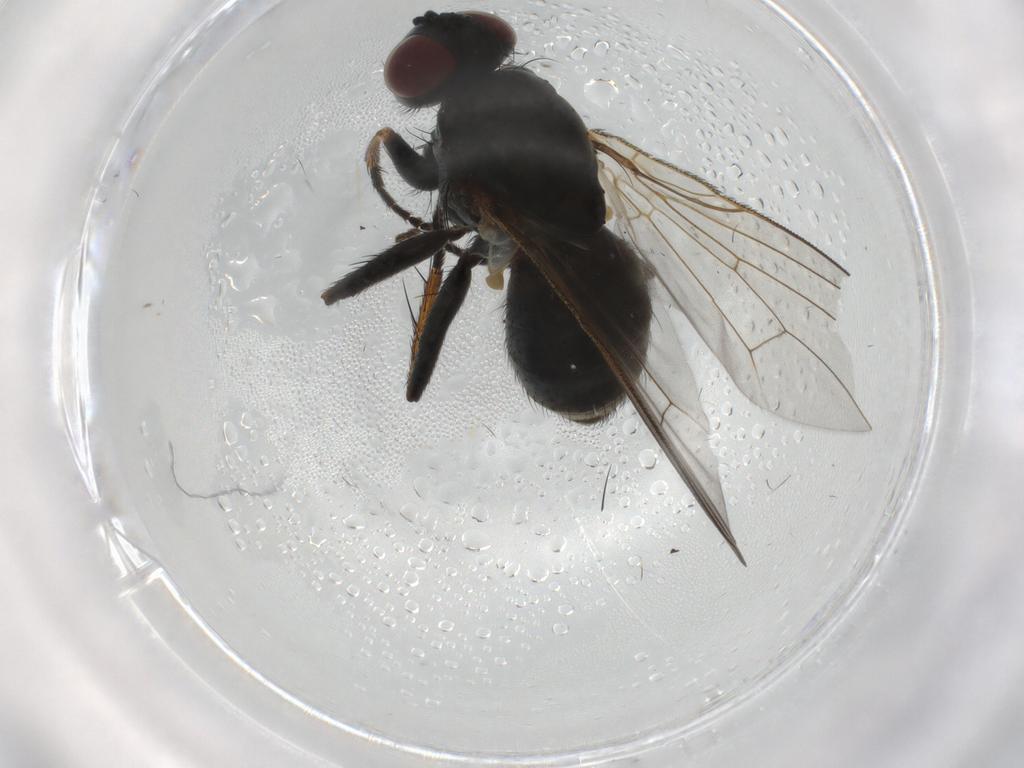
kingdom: Animalia
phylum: Arthropoda
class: Insecta
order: Diptera
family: Muscidae
